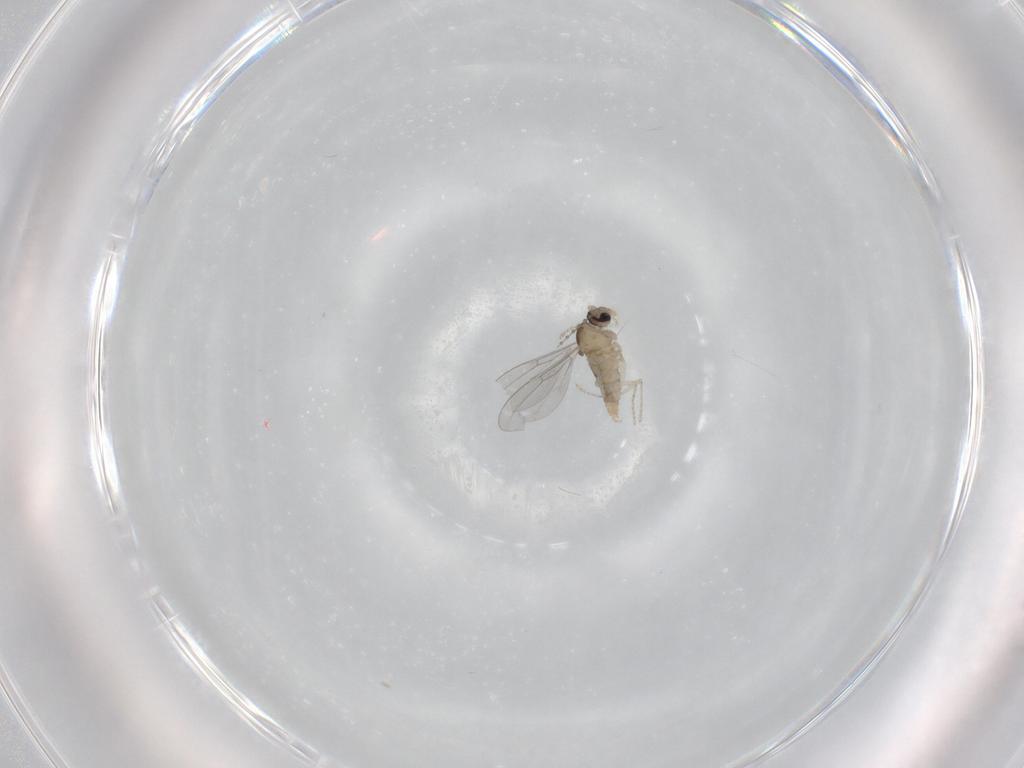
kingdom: Animalia
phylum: Arthropoda
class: Insecta
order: Diptera
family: Cecidomyiidae
